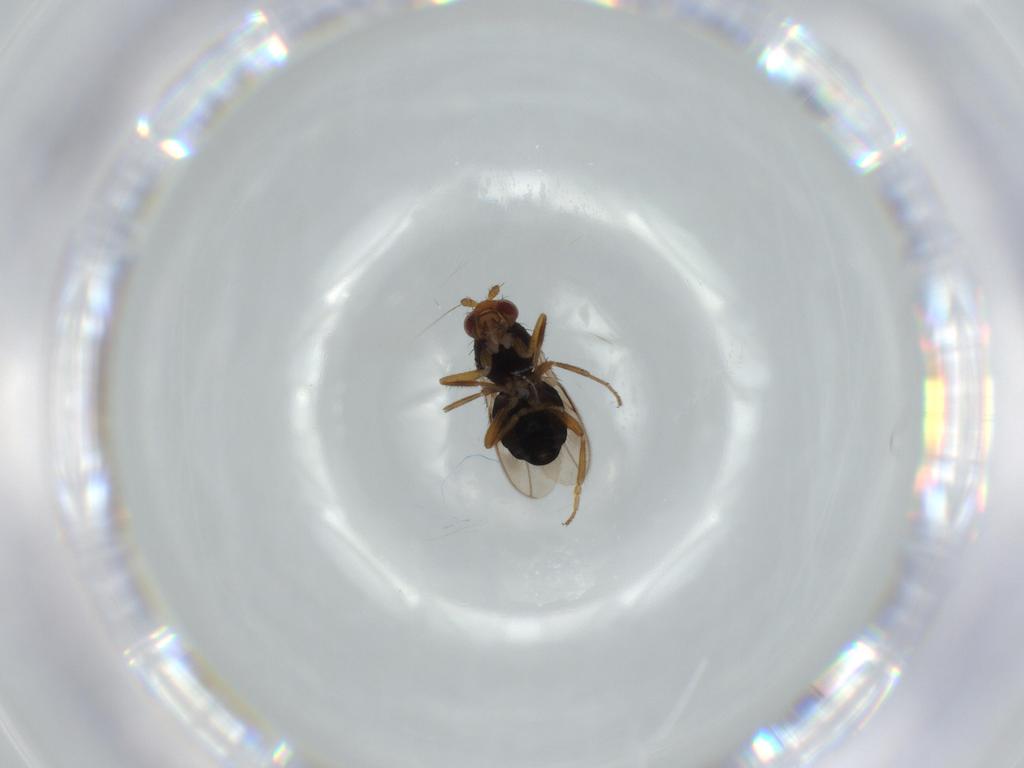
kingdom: Animalia
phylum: Arthropoda
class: Insecta
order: Diptera
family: Sphaeroceridae
